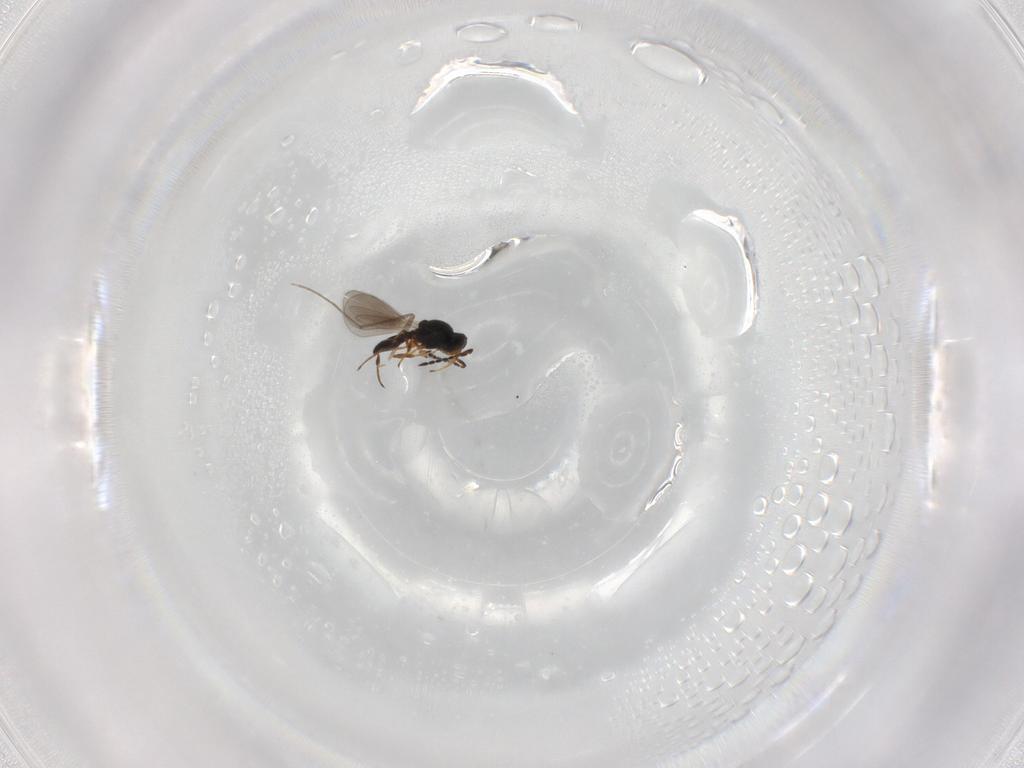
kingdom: Animalia
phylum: Arthropoda
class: Insecta
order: Hymenoptera
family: Platygastridae
